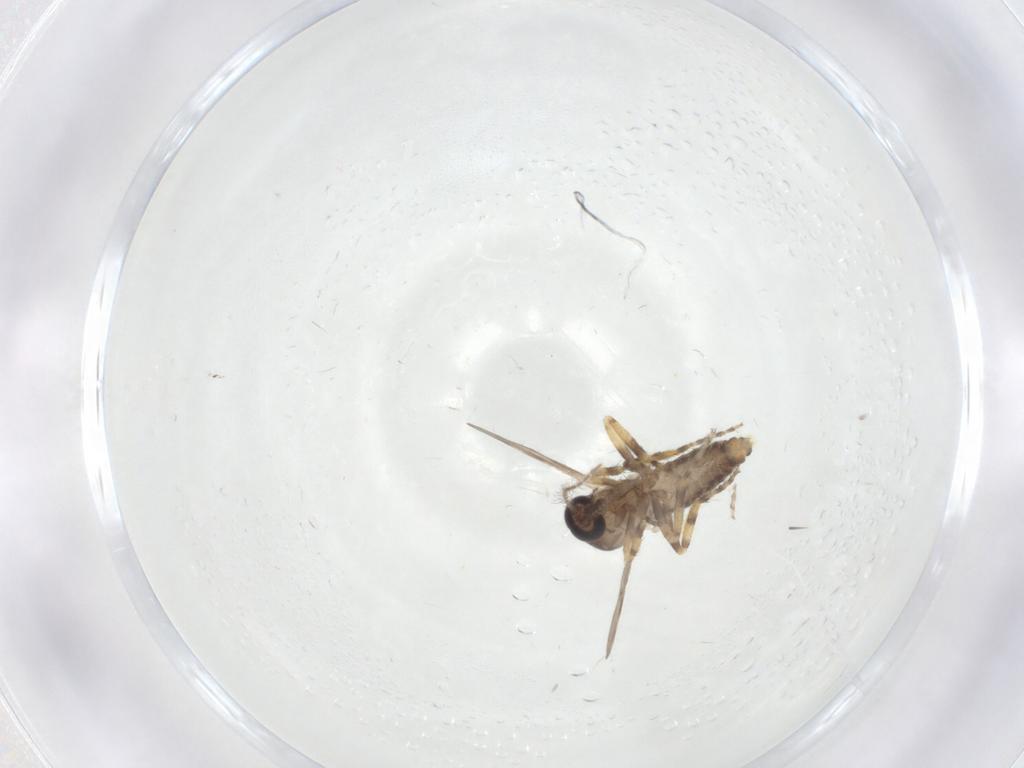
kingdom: Animalia
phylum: Arthropoda
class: Insecta
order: Diptera
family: Ceratopogonidae
